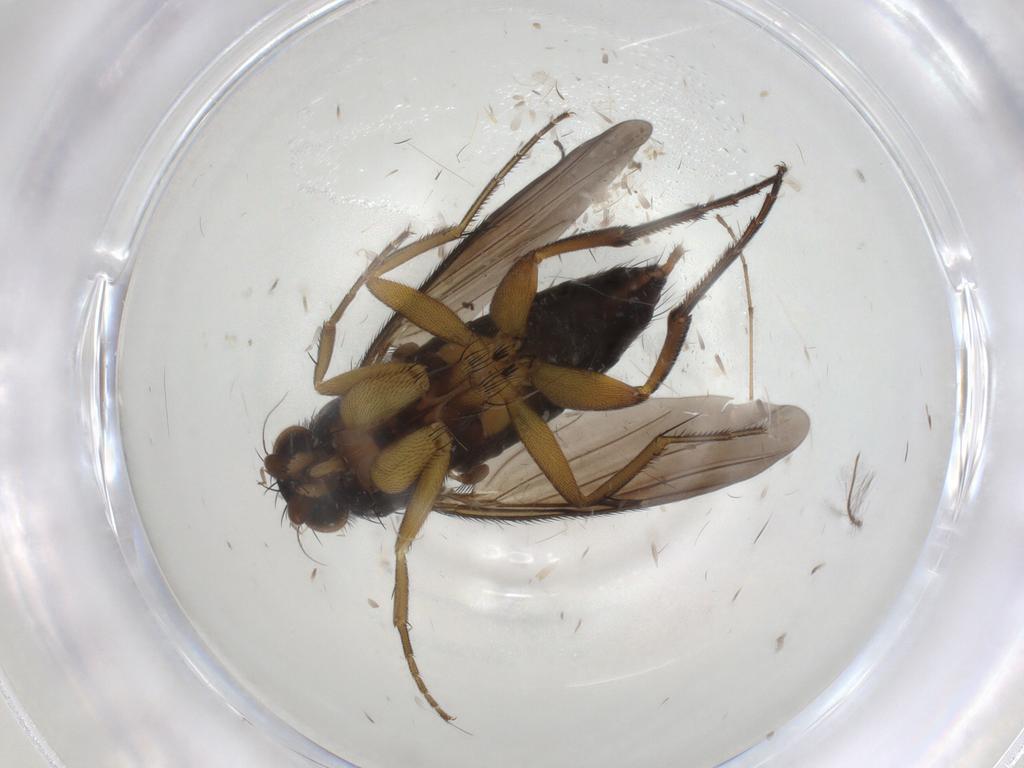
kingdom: Animalia
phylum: Arthropoda
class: Insecta
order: Diptera
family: Phoridae
